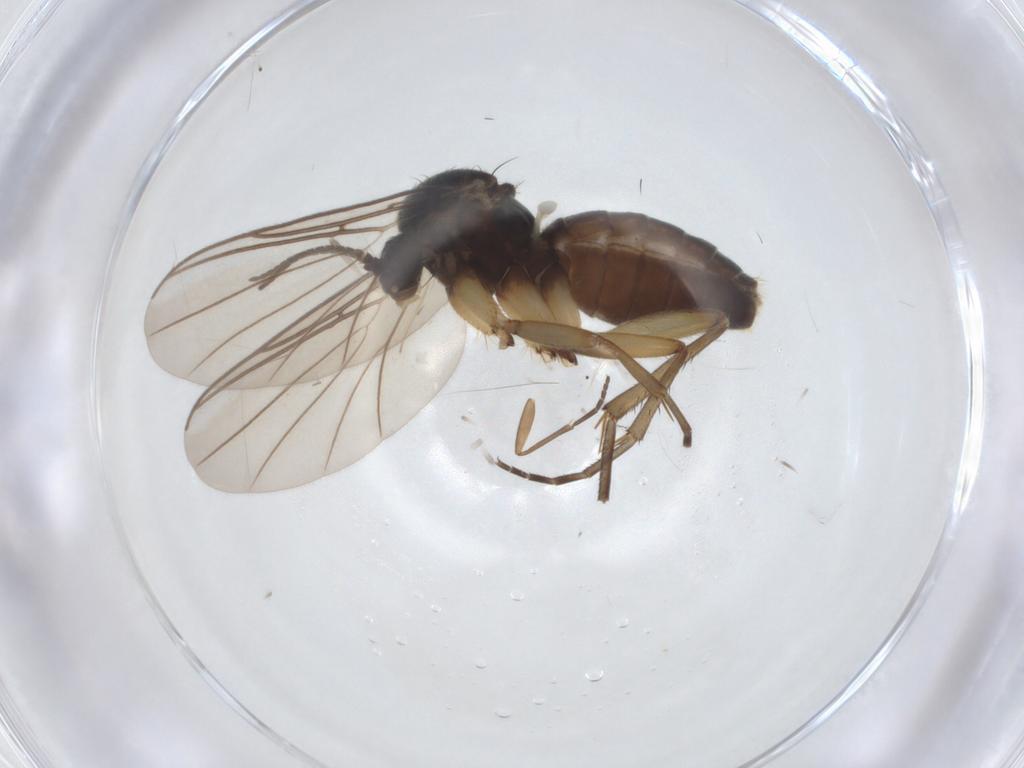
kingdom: Animalia
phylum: Arthropoda
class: Insecta
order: Diptera
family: Mycetophilidae
